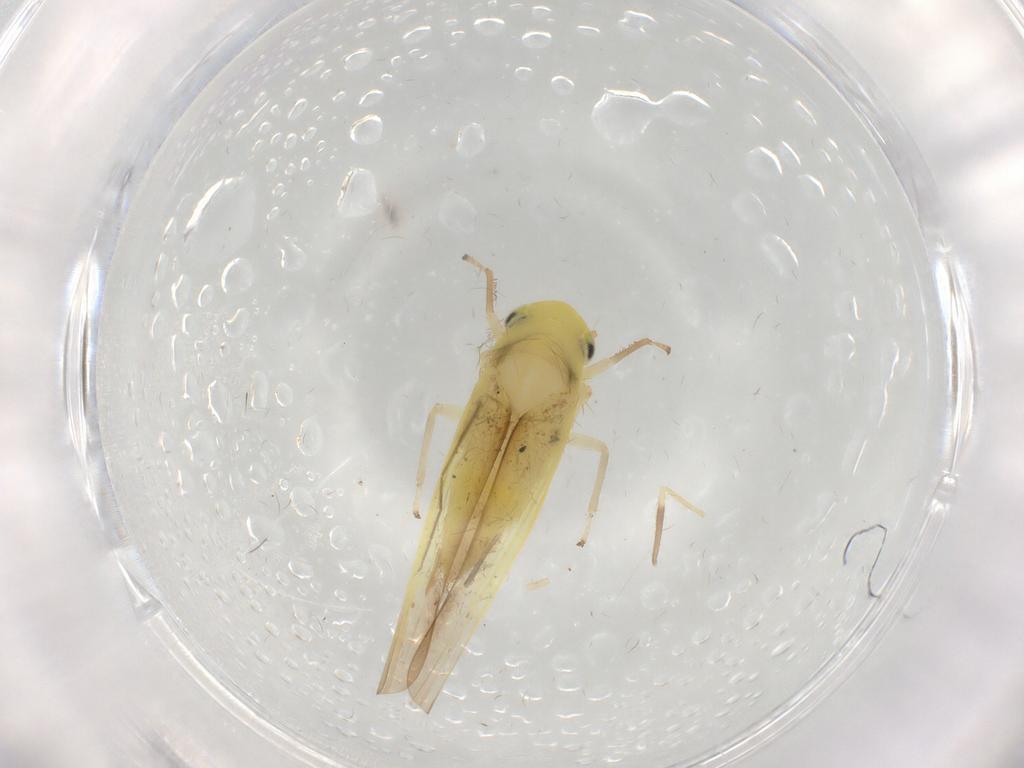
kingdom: Animalia
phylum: Arthropoda
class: Insecta
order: Hemiptera
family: Cicadellidae
